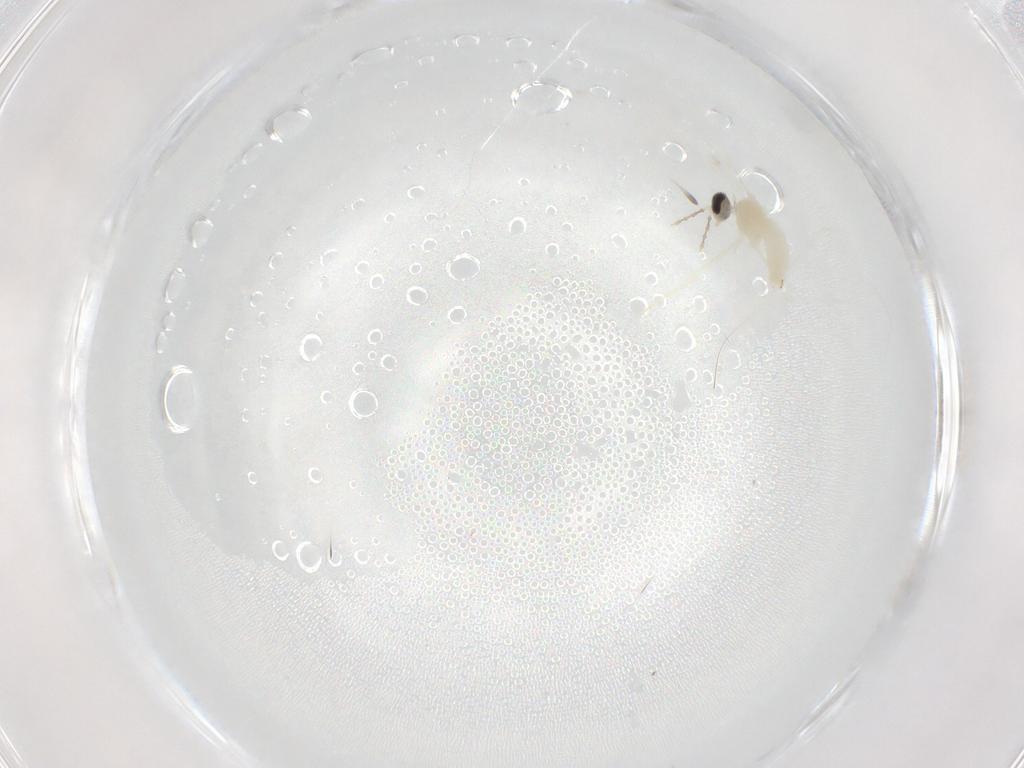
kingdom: Animalia
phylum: Arthropoda
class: Insecta
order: Diptera
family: Cecidomyiidae
